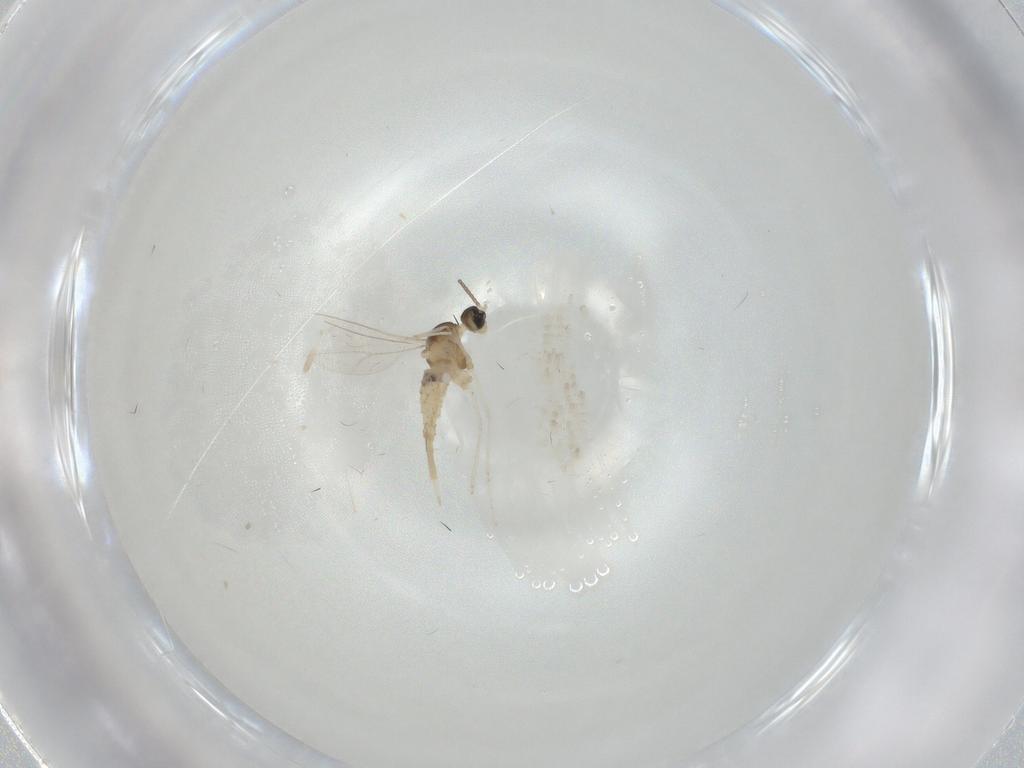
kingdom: Animalia
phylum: Arthropoda
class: Insecta
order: Diptera
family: Cecidomyiidae
